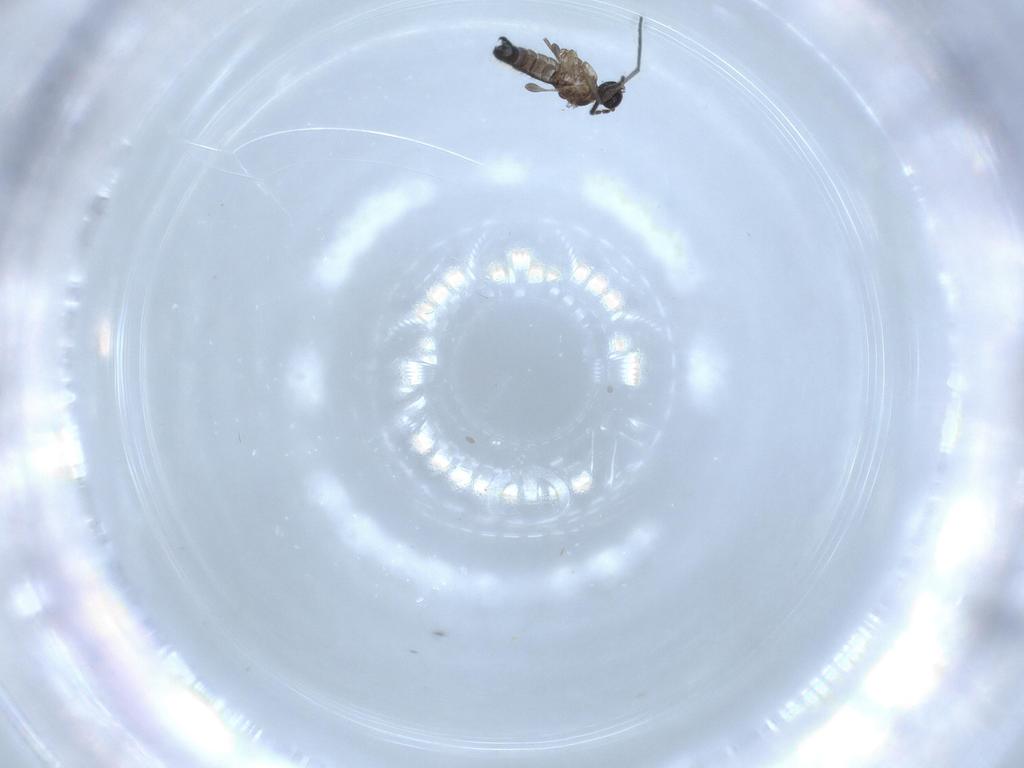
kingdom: Animalia
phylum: Arthropoda
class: Insecta
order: Diptera
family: Sciaridae
